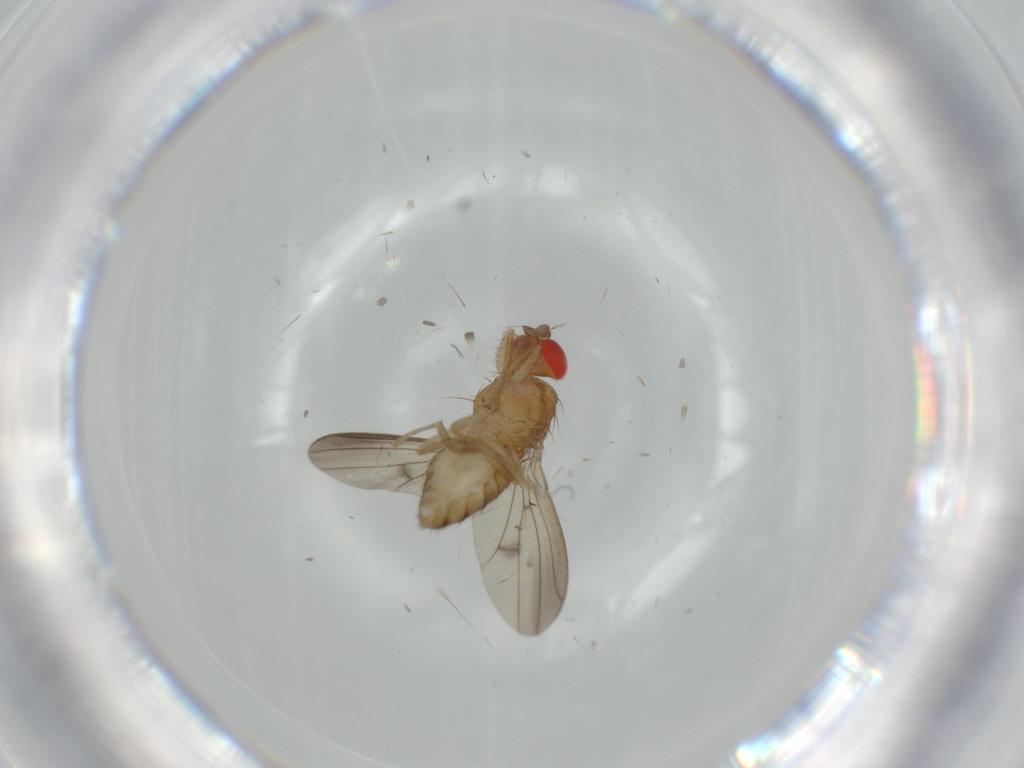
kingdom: Animalia
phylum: Arthropoda
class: Insecta
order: Diptera
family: Drosophilidae
